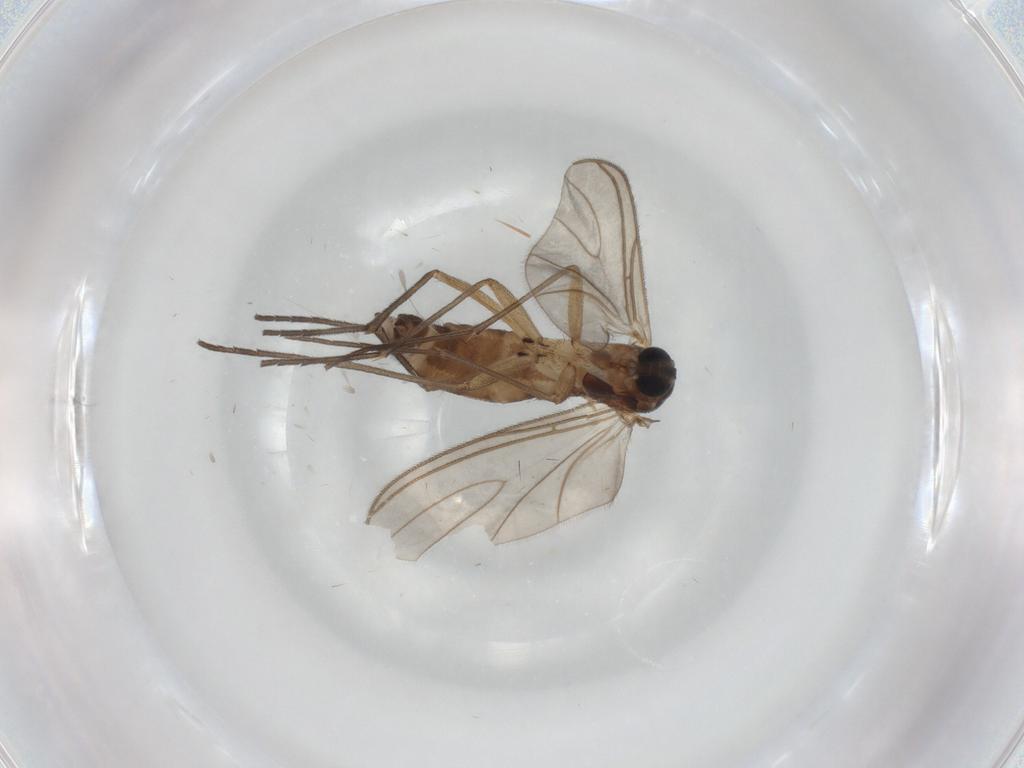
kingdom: Animalia
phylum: Arthropoda
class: Insecta
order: Diptera
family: Sciaridae
